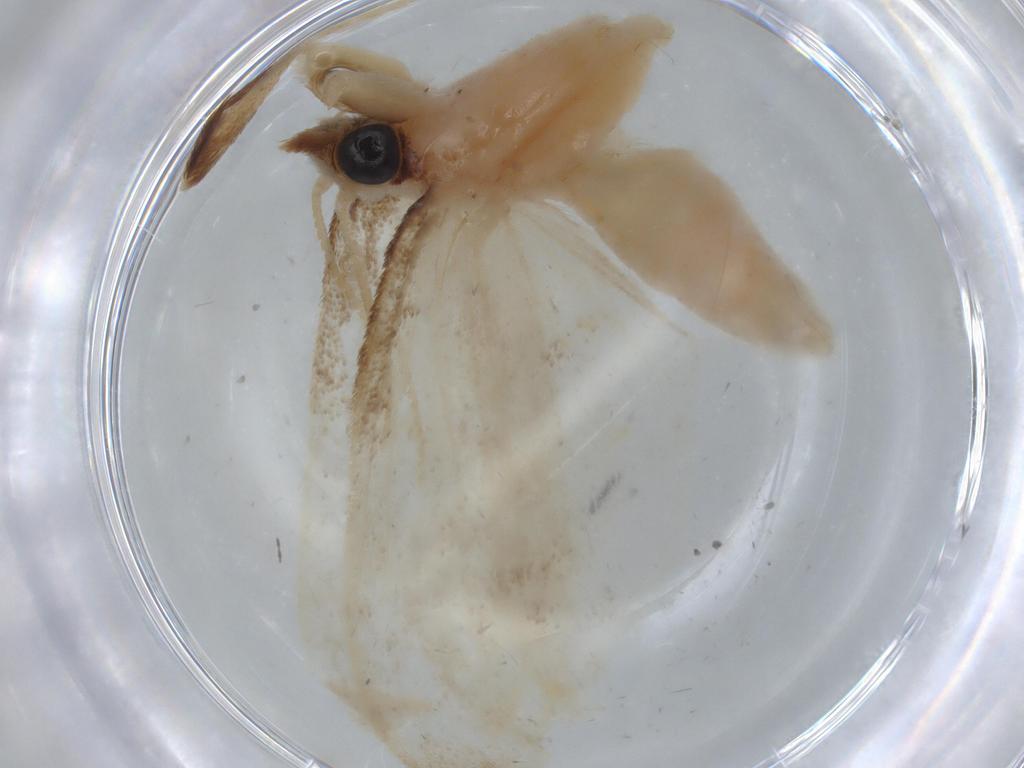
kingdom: Animalia
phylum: Arthropoda
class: Insecta
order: Lepidoptera
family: Crambidae
